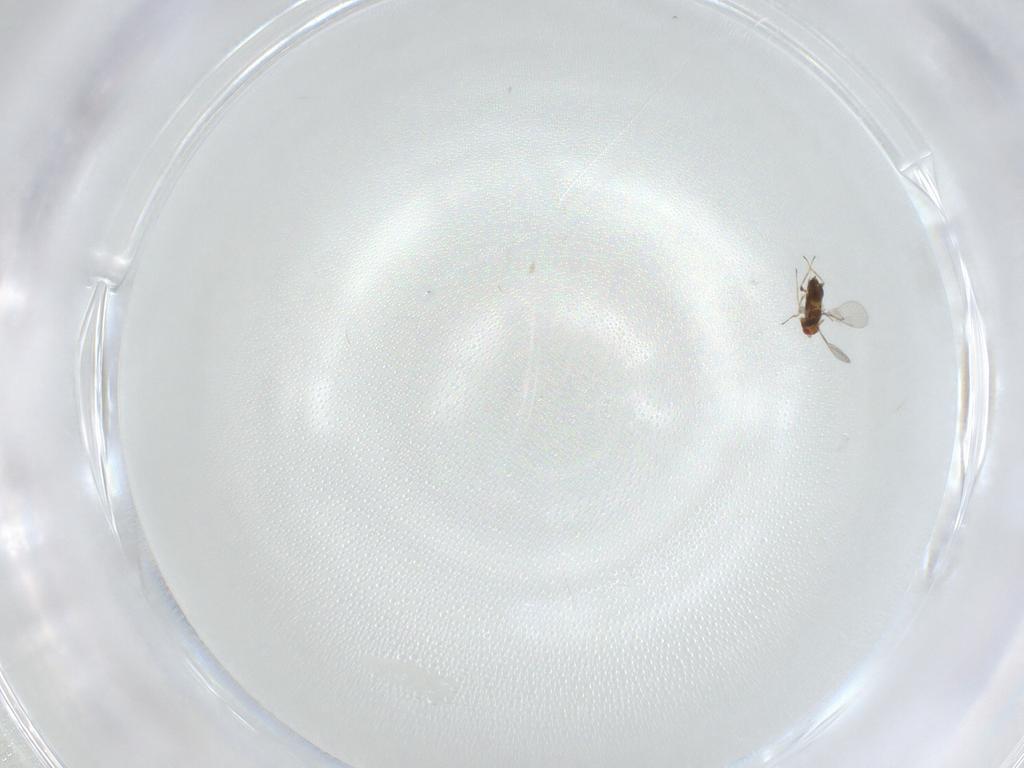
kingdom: Animalia
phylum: Arthropoda
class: Insecta
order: Hymenoptera
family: Trichogrammatidae
